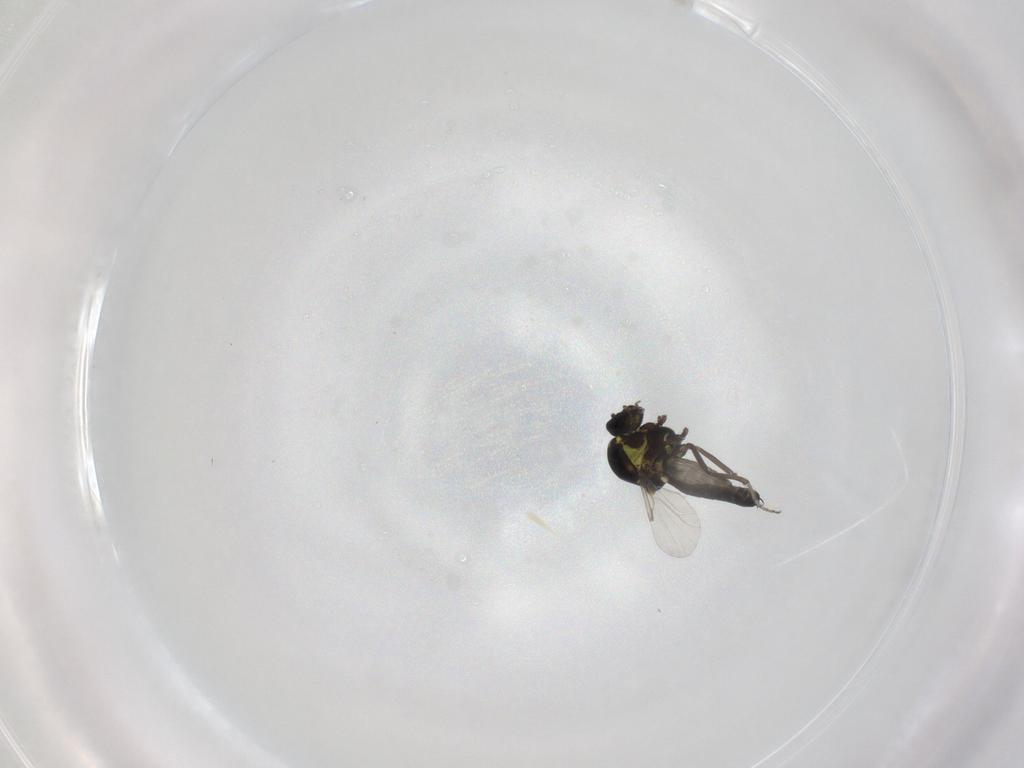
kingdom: Animalia
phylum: Arthropoda
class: Insecta
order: Diptera
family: Ceratopogonidae
